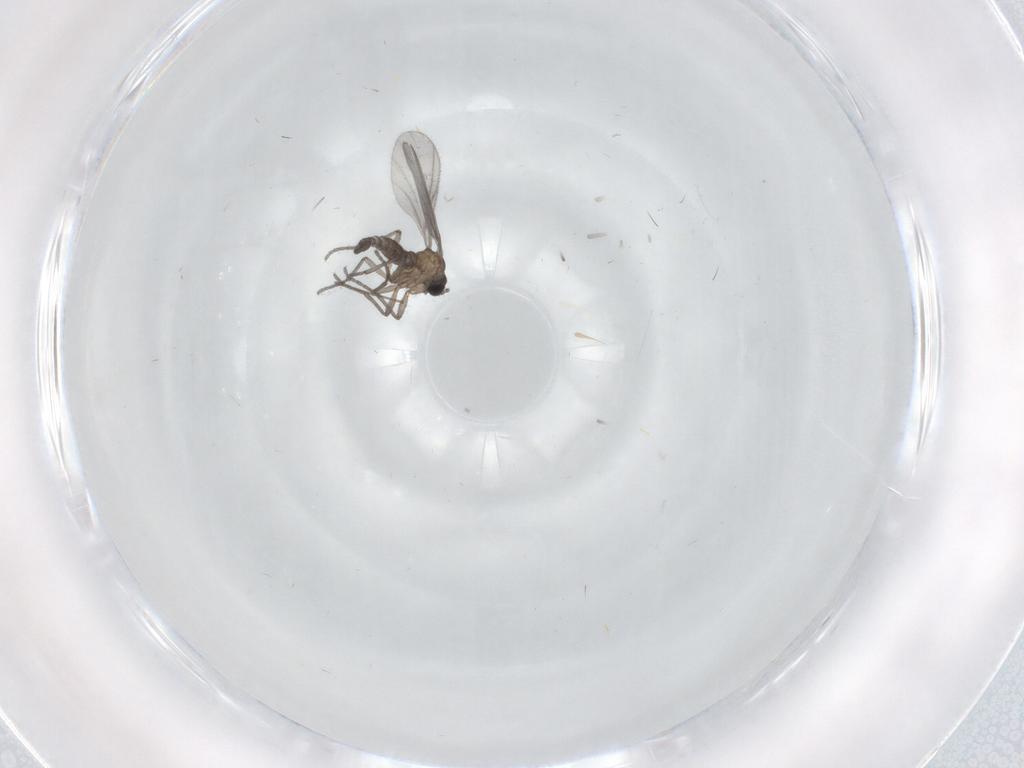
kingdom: Animalia
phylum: Arthropoda
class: Insecta
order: Diptera
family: Sciaridae
